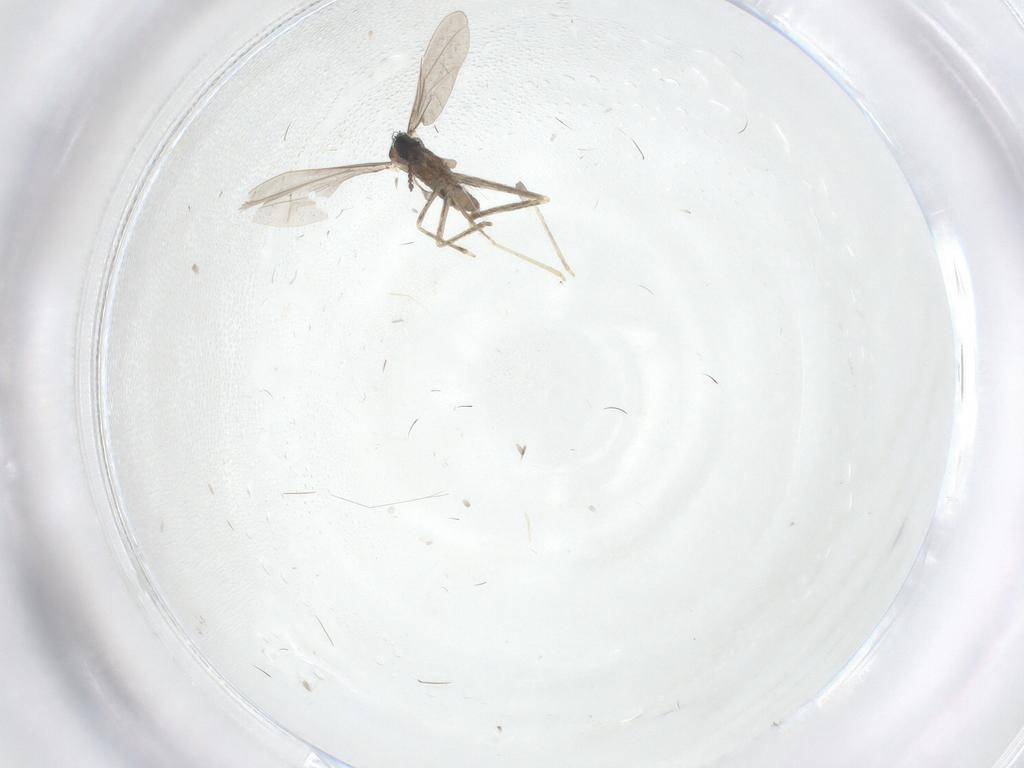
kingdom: Animalia
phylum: Arthropoda
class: Insecta
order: Diptera
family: Cecidomyiidae
